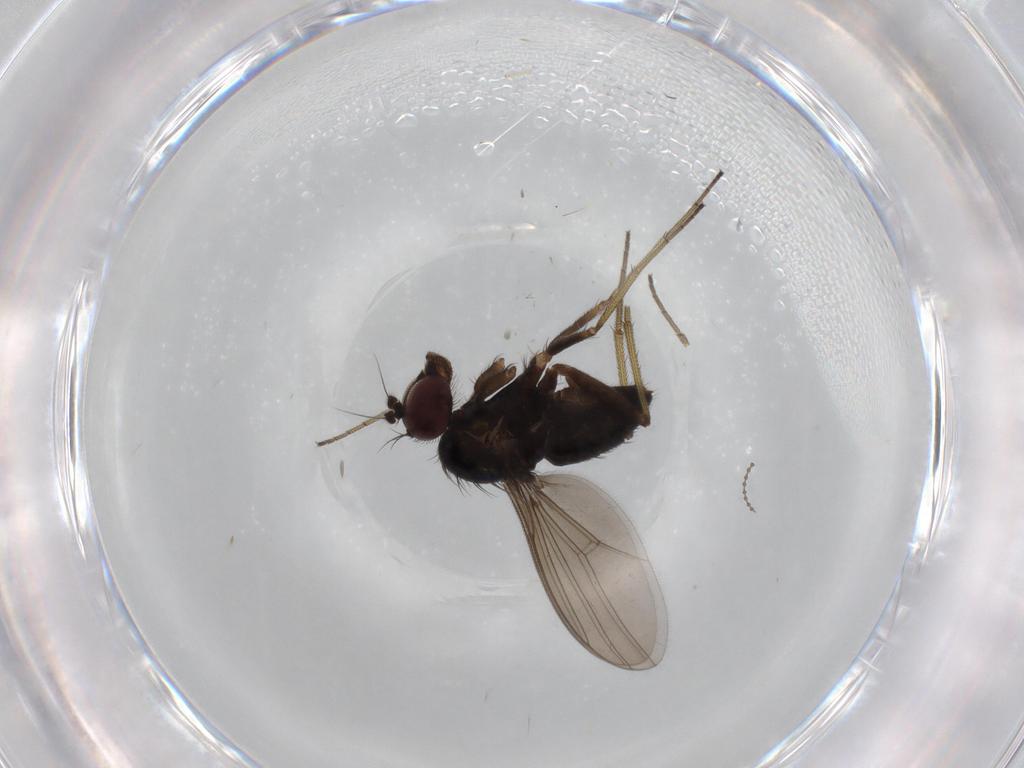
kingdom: Animalia
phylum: Arthropoda
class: Insecta
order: Diptera
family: Dolichopodidae
